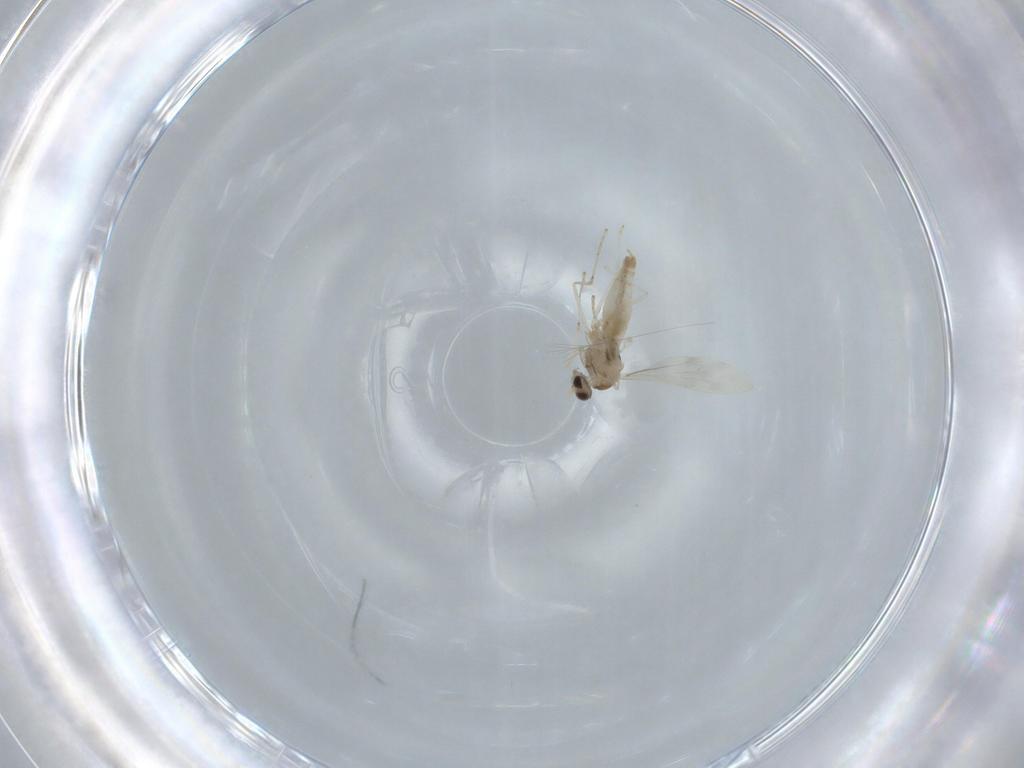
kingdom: Animalia
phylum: Arthropoda
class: Insecta
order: Diptera
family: Cecidomyiidae
